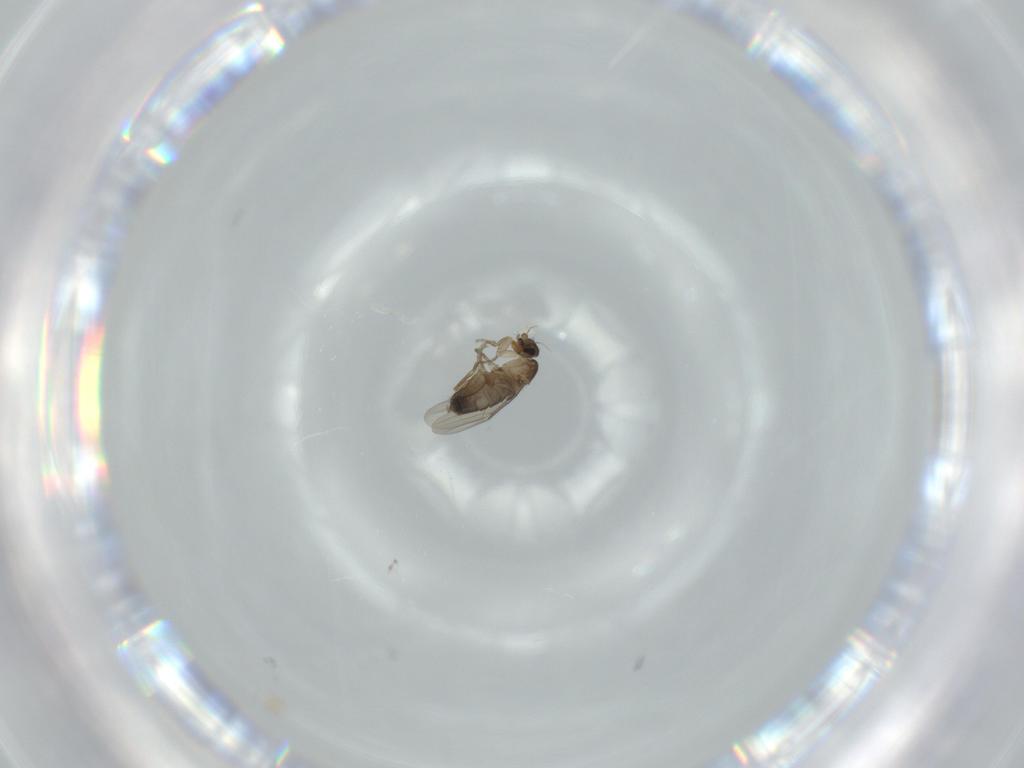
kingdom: Animalia
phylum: Arthropoda
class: Insecta
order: Diptera
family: Phoridae
